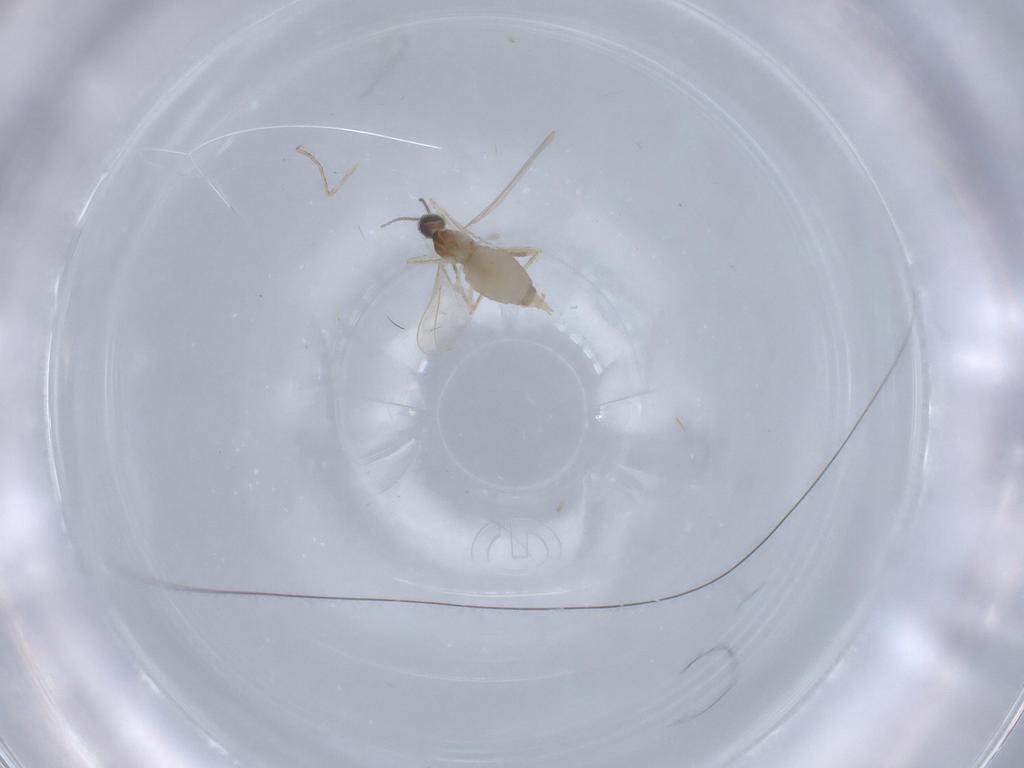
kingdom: Animalia
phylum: Arthropoda
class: Insecta
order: Diptera
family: Cecidomyiidae
